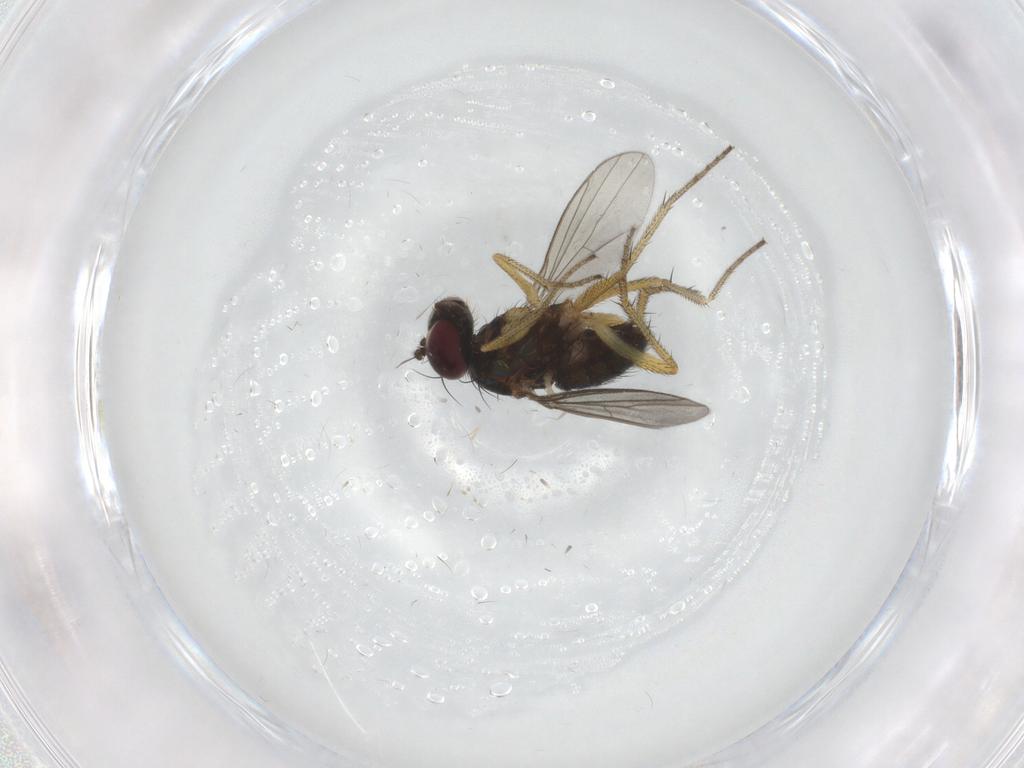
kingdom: Animalia
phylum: Arthropoda
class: Insecta
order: Diptera
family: Dolichopodidae
